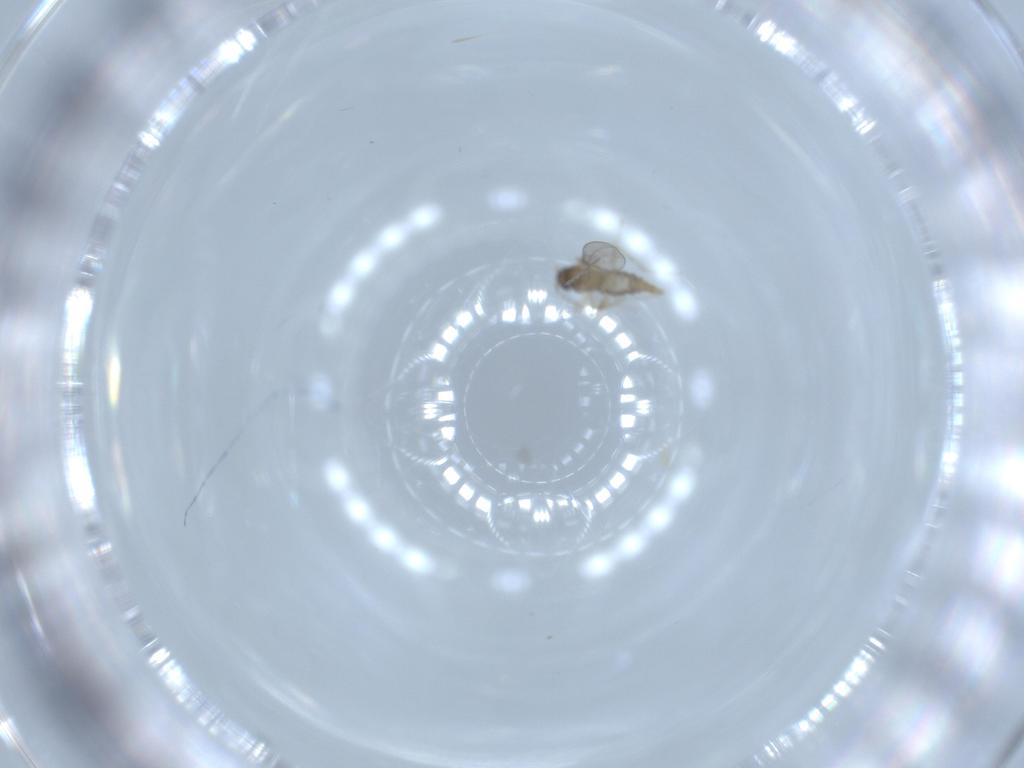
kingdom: Animalia
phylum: Arthropoda
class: Insecta
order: Diptera
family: Cecidomyiidae
